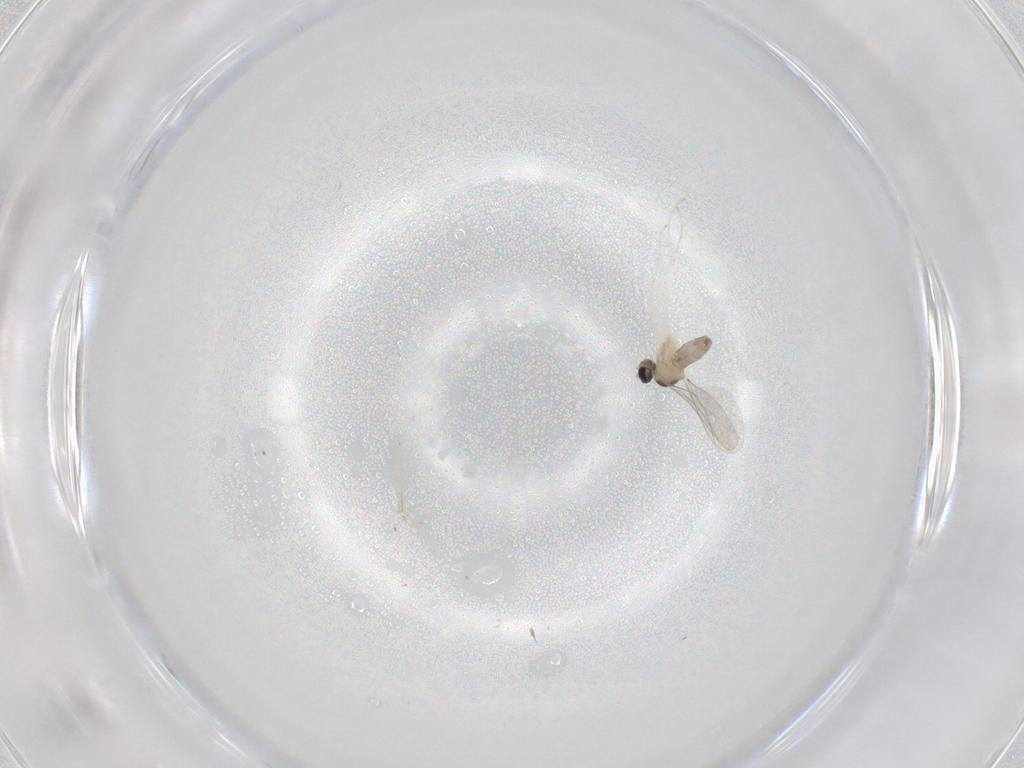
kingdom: Animalia
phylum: Arthropoda
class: Insecta
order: Diptera
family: Cecidomyiidae
